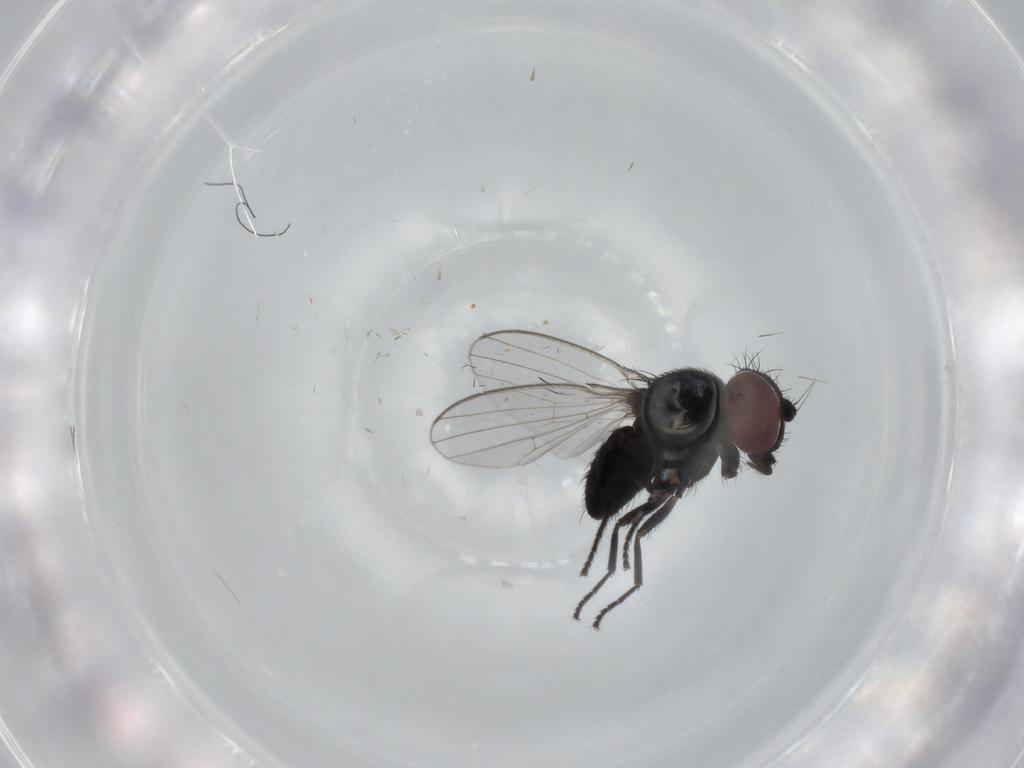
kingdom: Animalia
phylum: Arthropoda
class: Insecta
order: Diptera
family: Milichiidae
